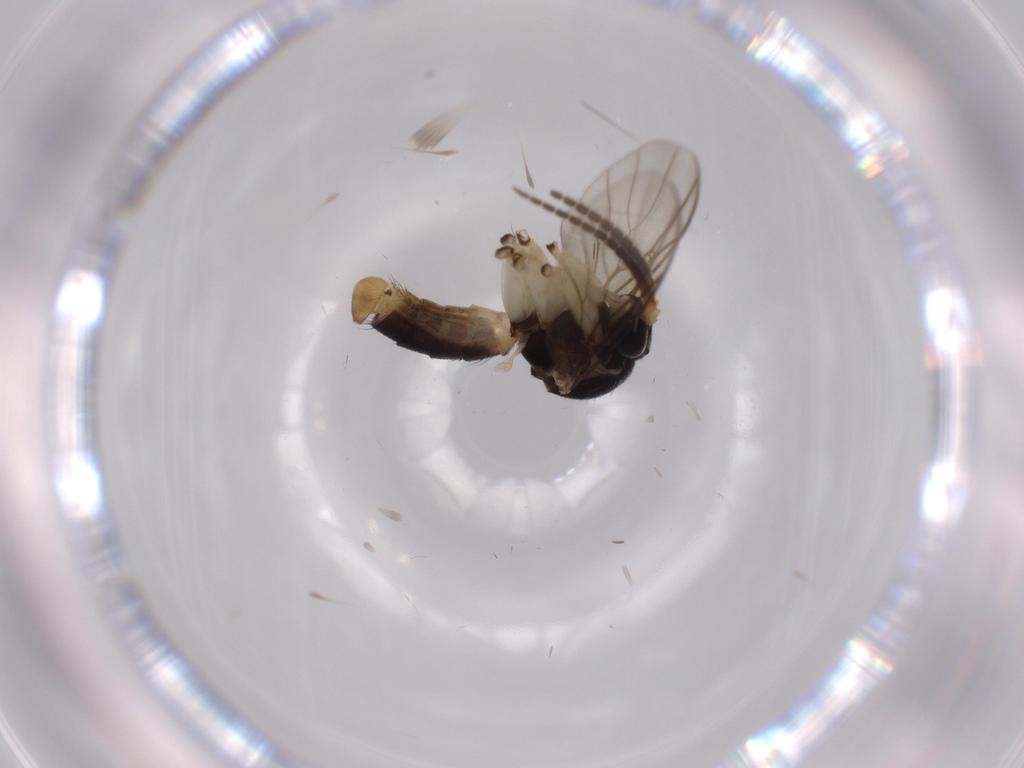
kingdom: Animalia
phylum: Arthropoda
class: Insecta
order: Diptera
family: Mycetophilidae
